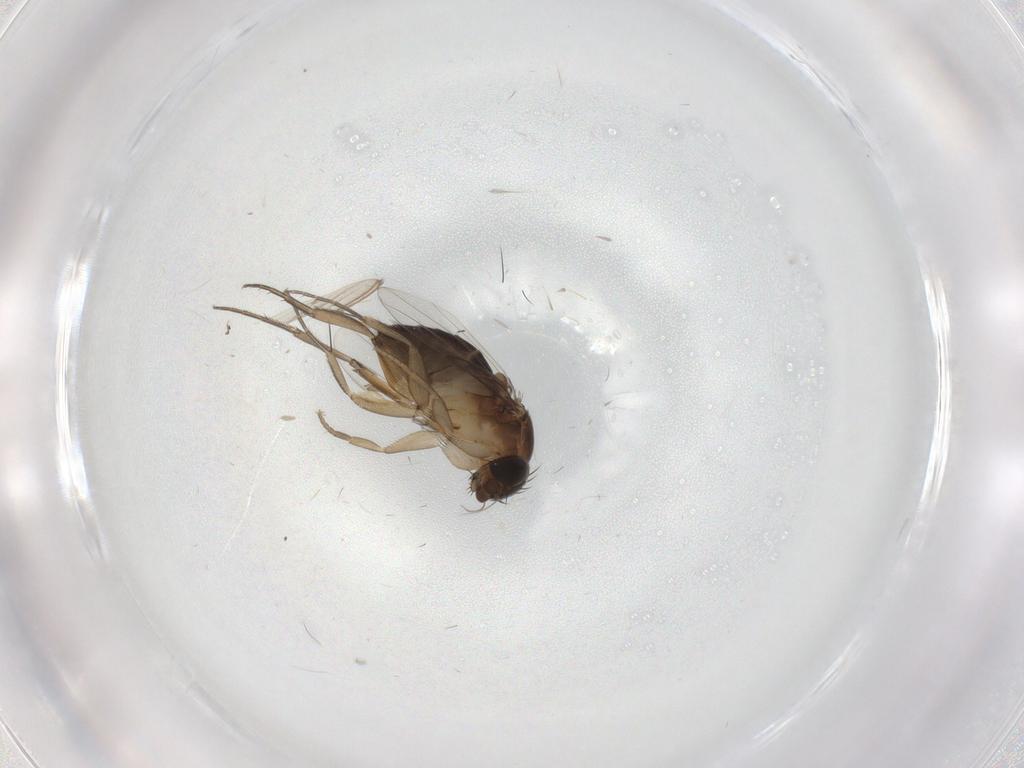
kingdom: Animalia
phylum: Arthropoda
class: Insecta
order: Diptera
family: Phoridae
